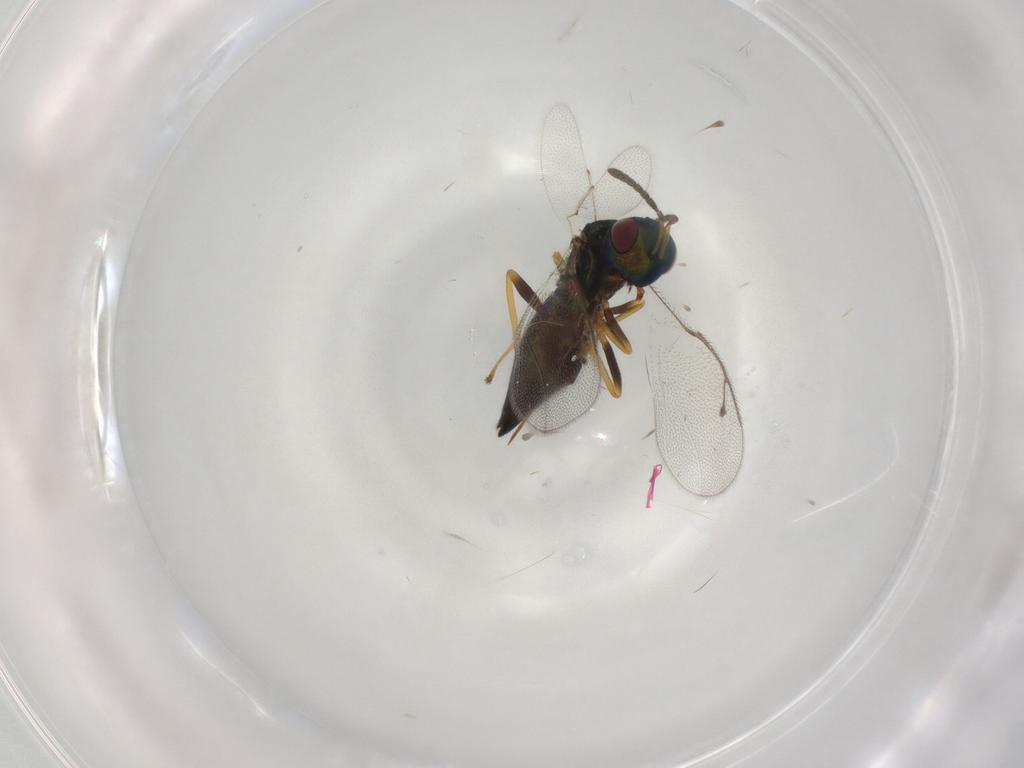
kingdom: Animalia
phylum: Arthropoda
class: Insecta
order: Hymenoptera
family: Pteromalidae
